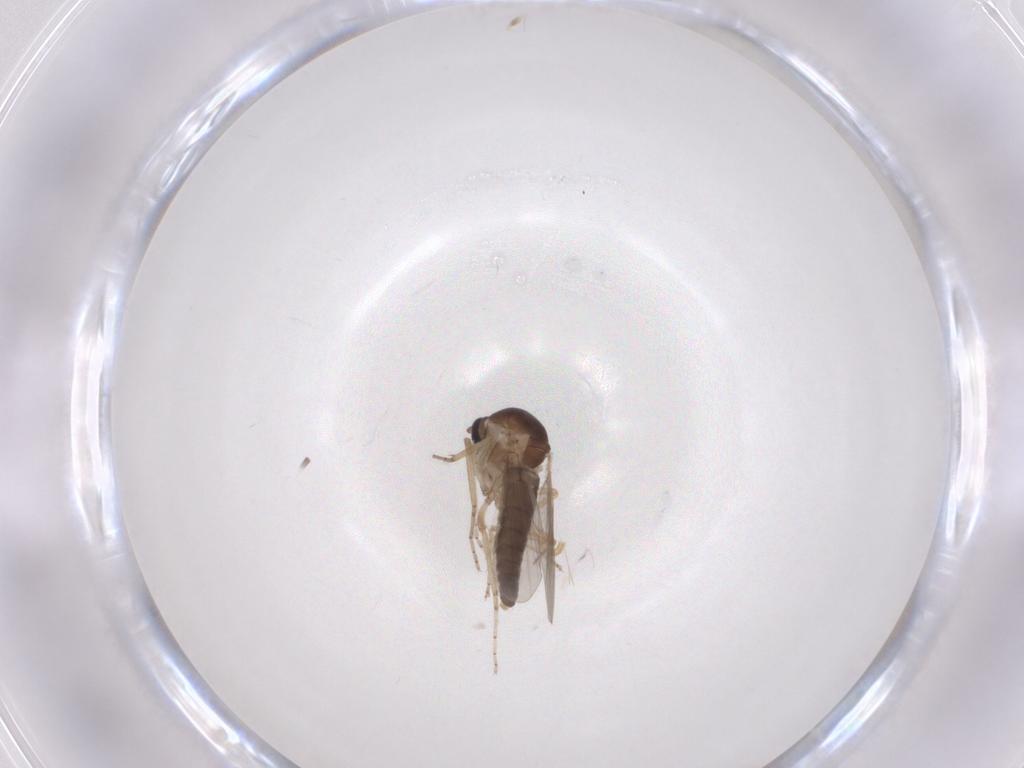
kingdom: Animalia
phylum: Arthropoda
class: Insecta
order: Diptera
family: Ceratopogonidae
